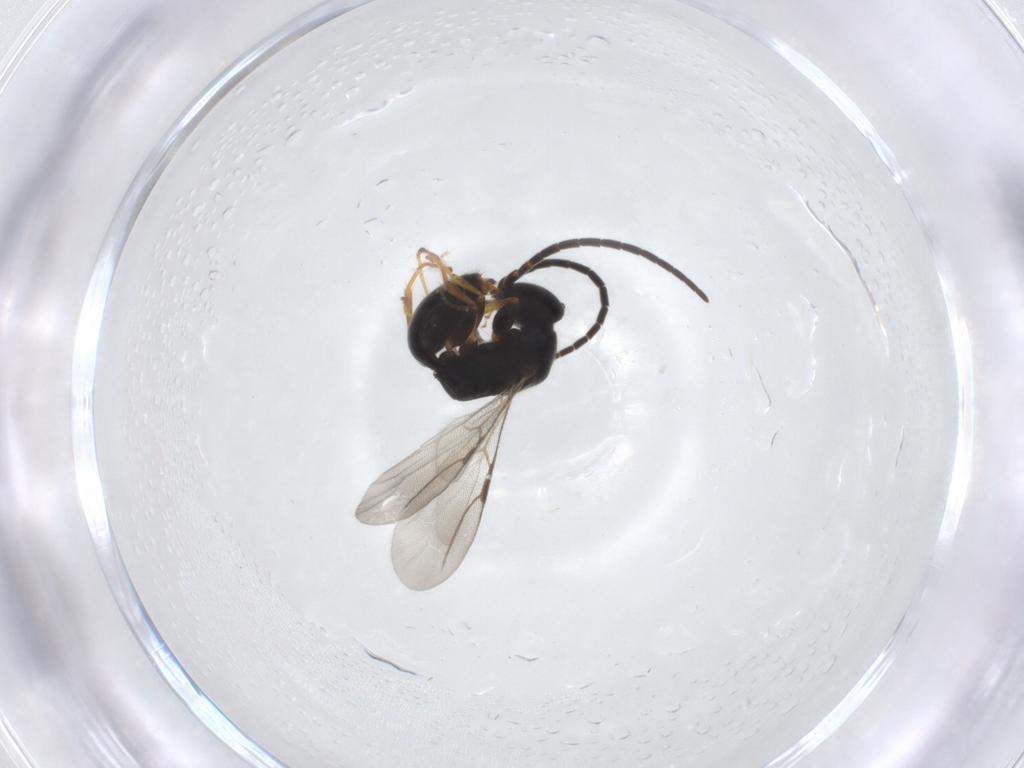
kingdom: Animalia
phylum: Arthropoda
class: Insecta
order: Hymenoptera
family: Bethylidae
